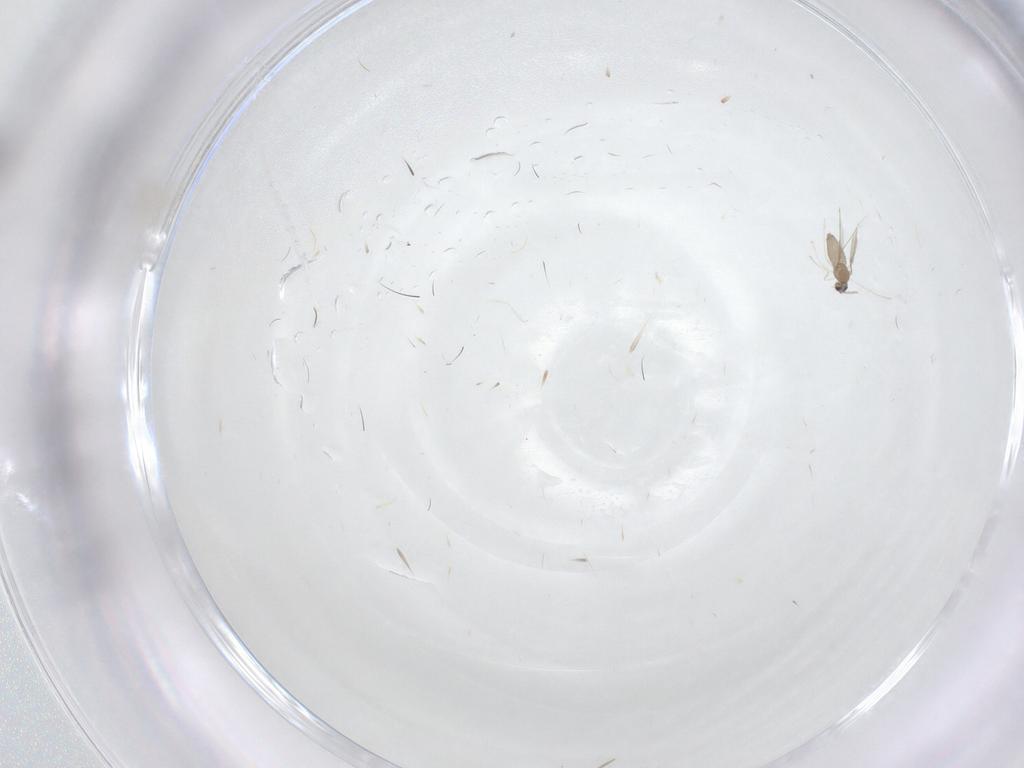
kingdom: Animalia
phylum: Arthropoda
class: Insecta
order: Diptera
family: Cecidomyiidae
